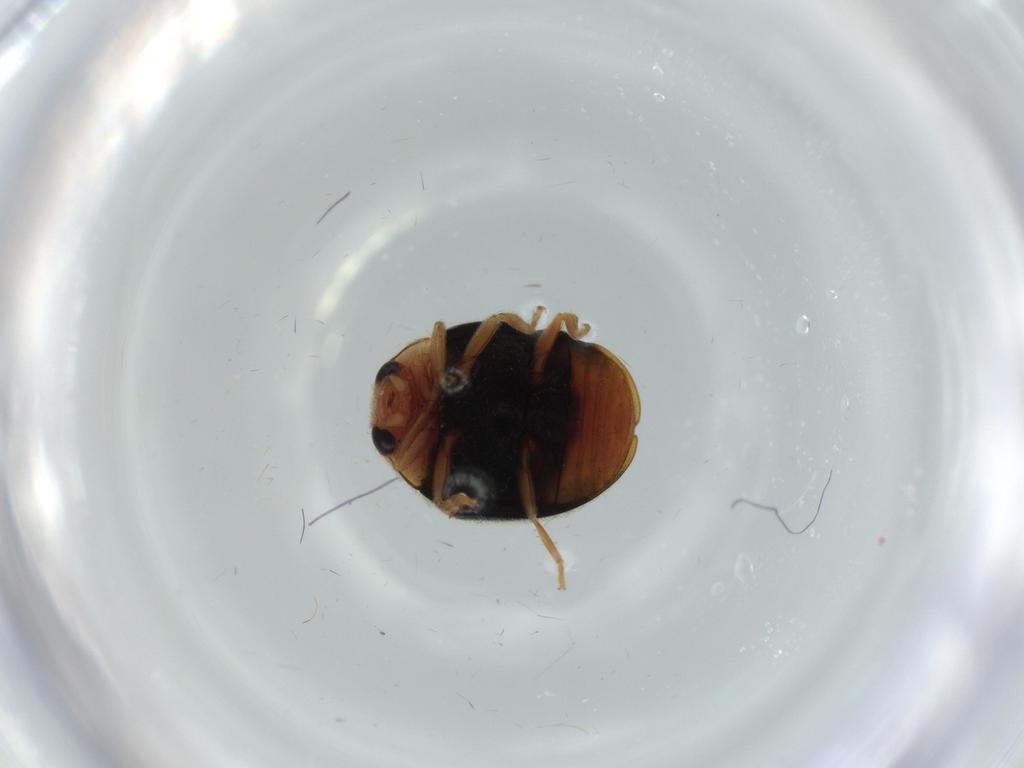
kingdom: Animalia
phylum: Arthropoda
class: Insecta
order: Coleoptera
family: Coccinellidae
